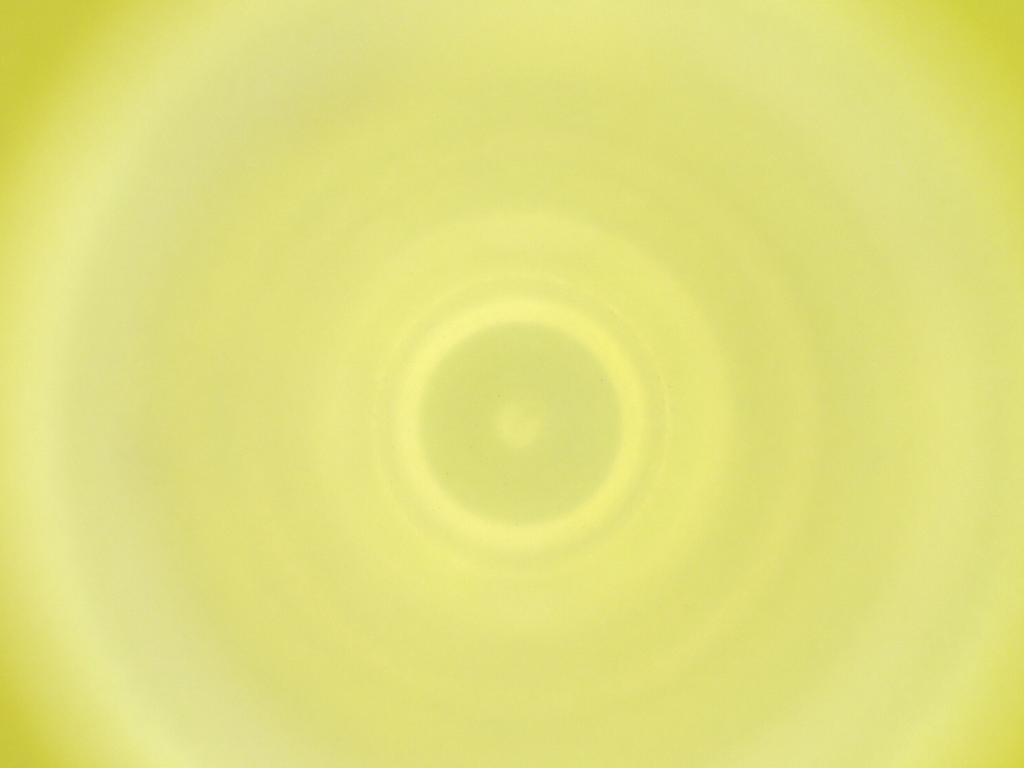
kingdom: Animalia
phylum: Arthropoda
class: Insecta
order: Diptera
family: Cecidomyiidae
